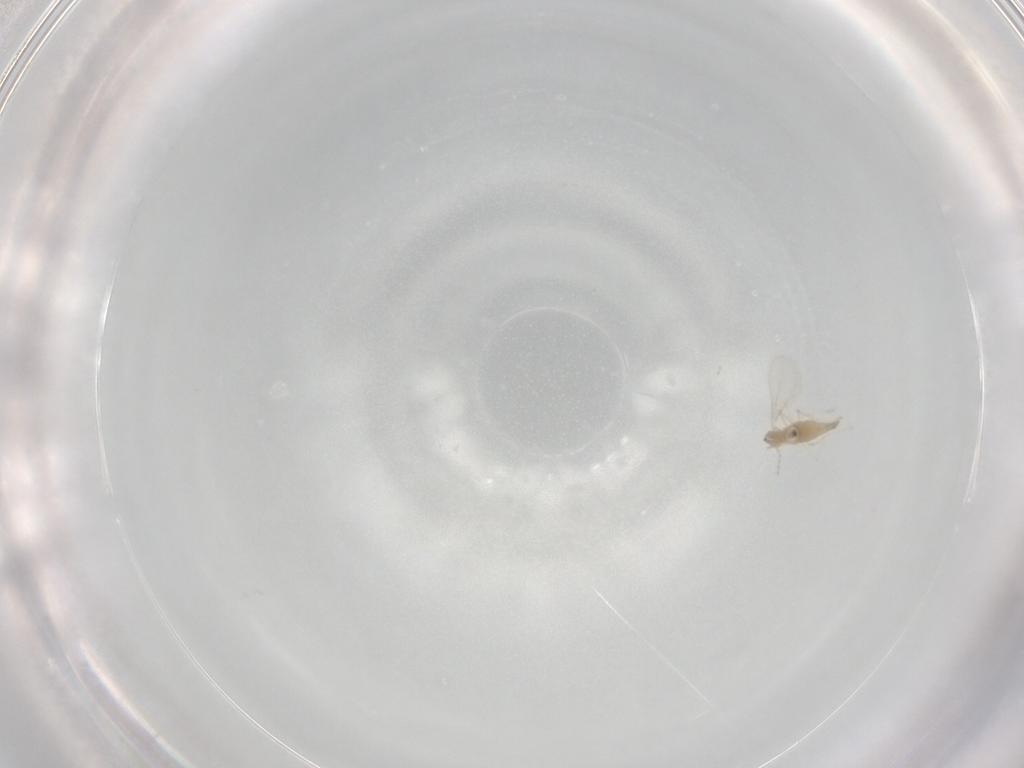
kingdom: Animalia
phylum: Arthropoda
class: Insecta
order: Diptera
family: Cecidomyiidae
